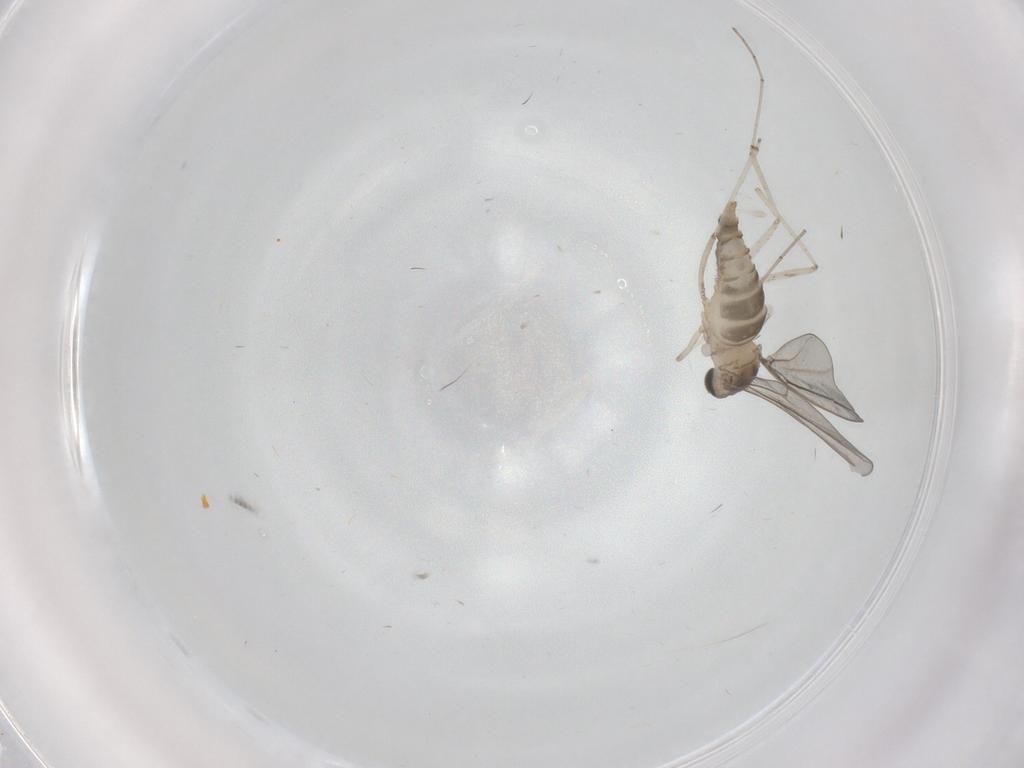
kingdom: Animalia
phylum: Arthropoda
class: Insecta
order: Diptera
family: Cecidomyiidae
